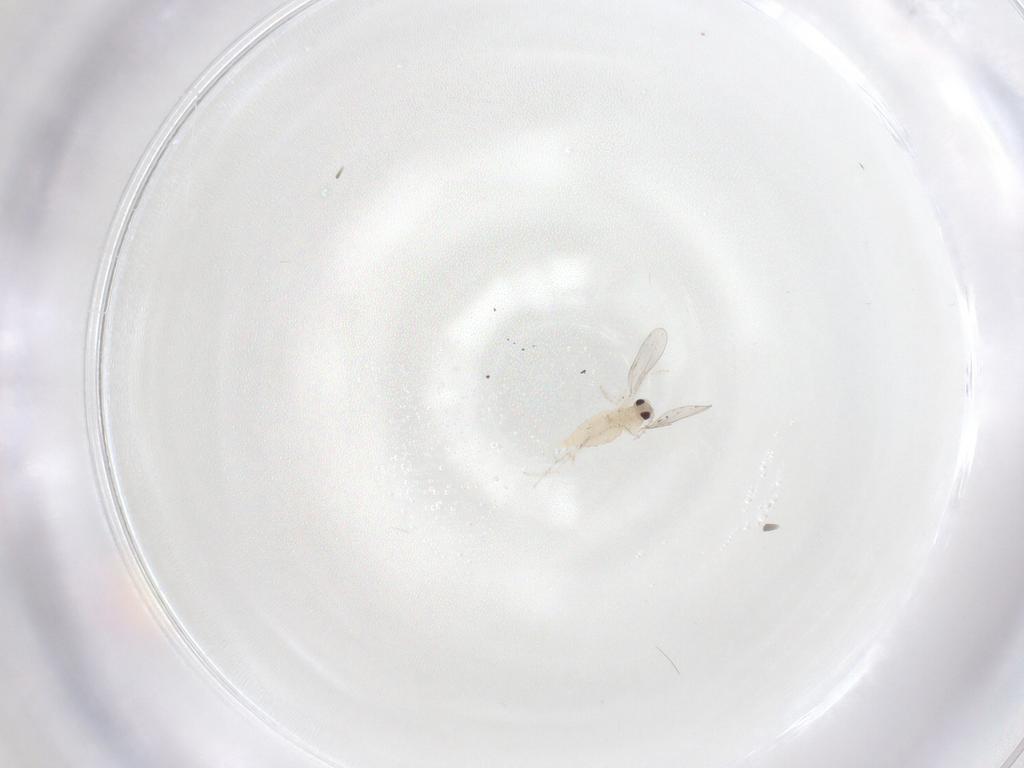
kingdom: Animalia
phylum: Arthropoda
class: Insecta
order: Diptera
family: Cecidomyiidae
